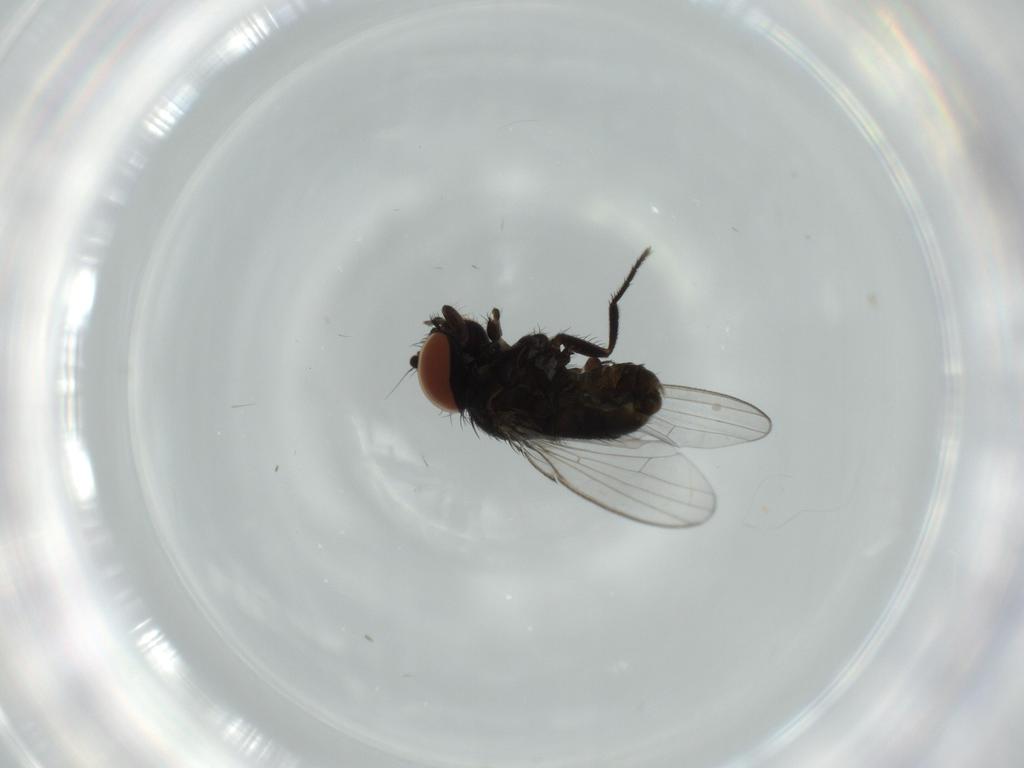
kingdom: Animalia
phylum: Arthropoda
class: Insecta
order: Diptera
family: Milichiidae
